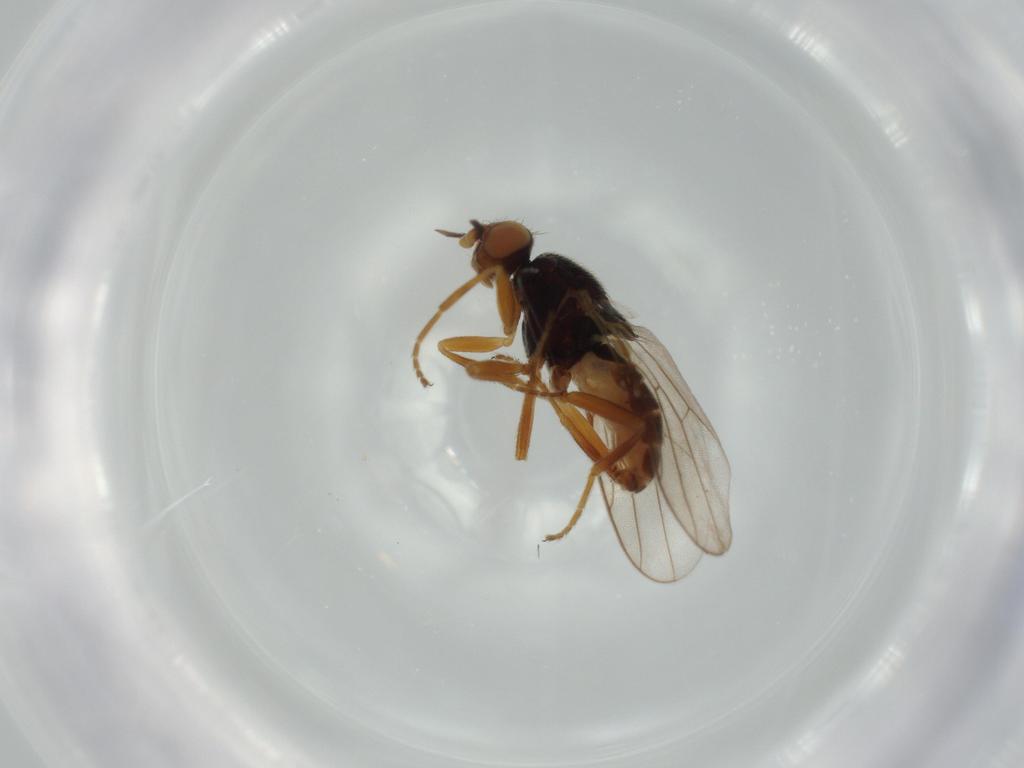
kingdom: Animalia
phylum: Arthropoda
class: Insecta
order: Diptera
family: Chloropidae
